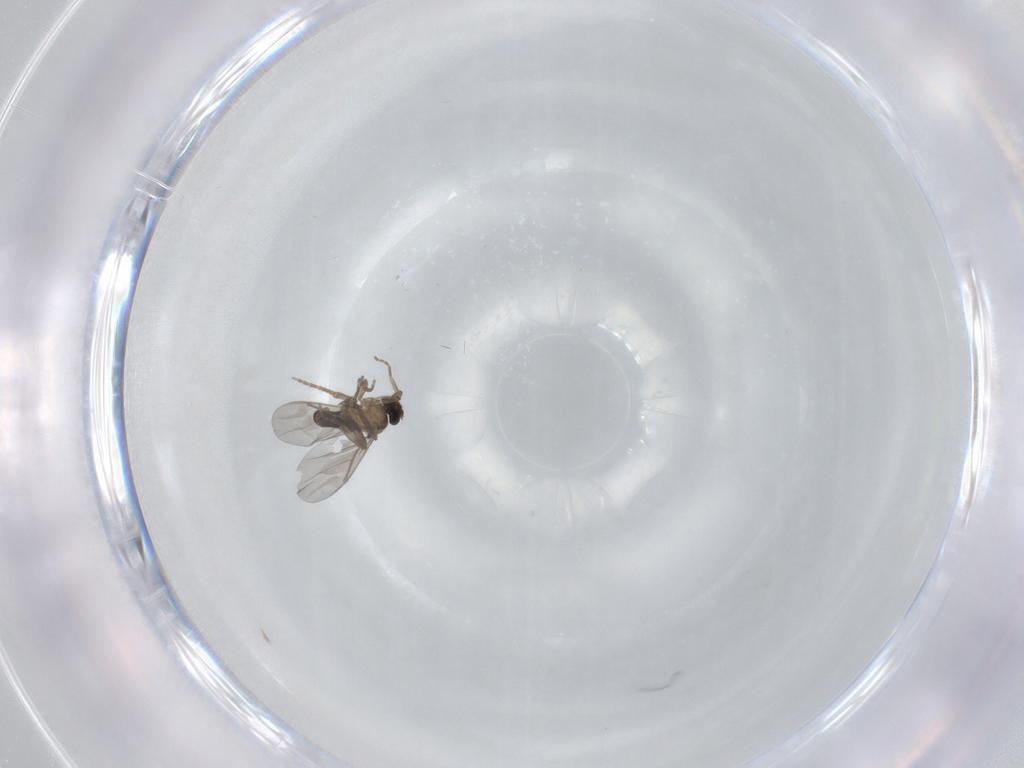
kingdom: Animalia
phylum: Arthropoda
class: Insecta
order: Diptera
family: Phoridae
